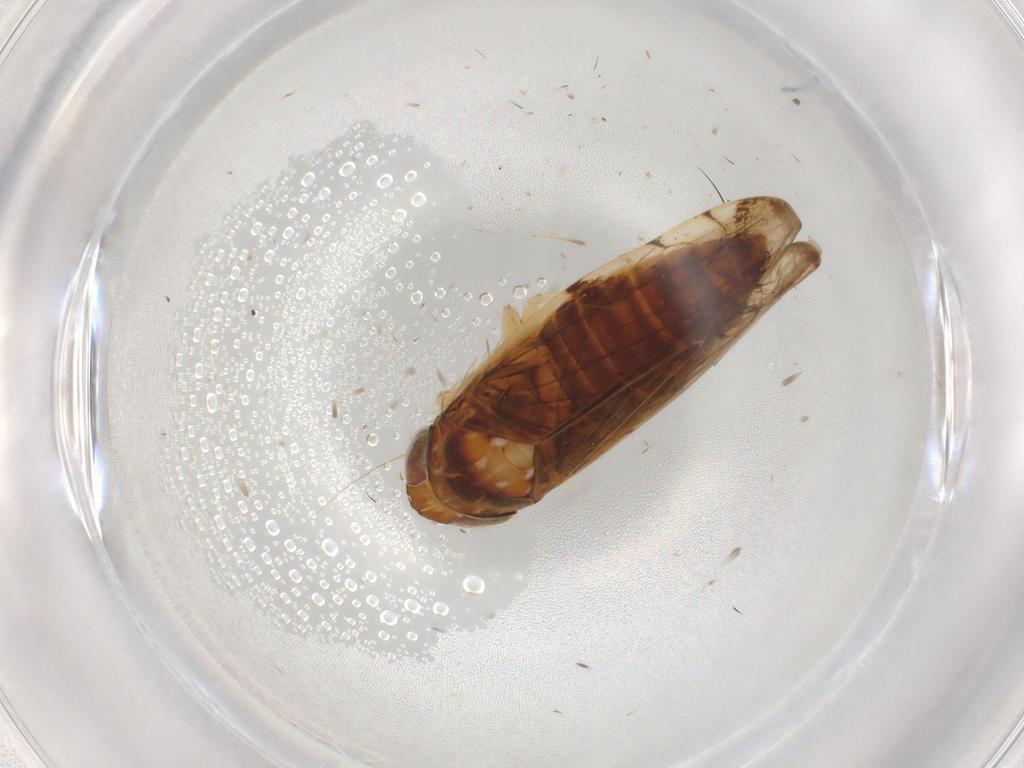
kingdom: Animalia
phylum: Arthropoda
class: Insecta
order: Hemiptera
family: Cicadellidae
